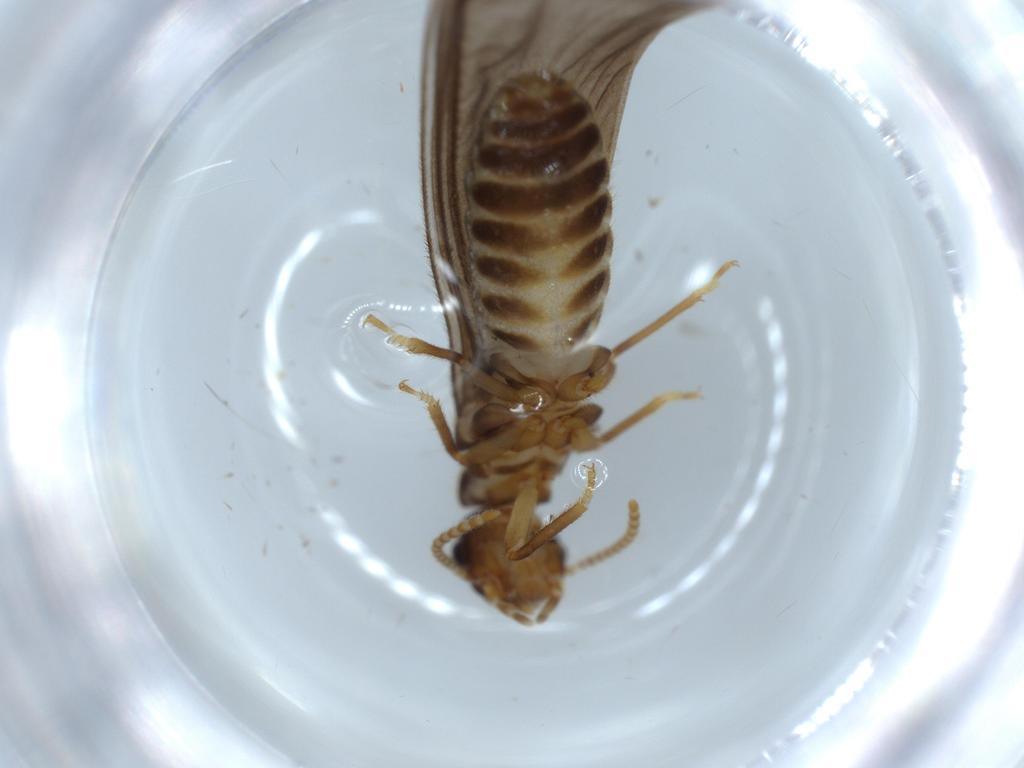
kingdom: Animalia
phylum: Arthropoda
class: Insecta
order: Blattodea
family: Termitidae
